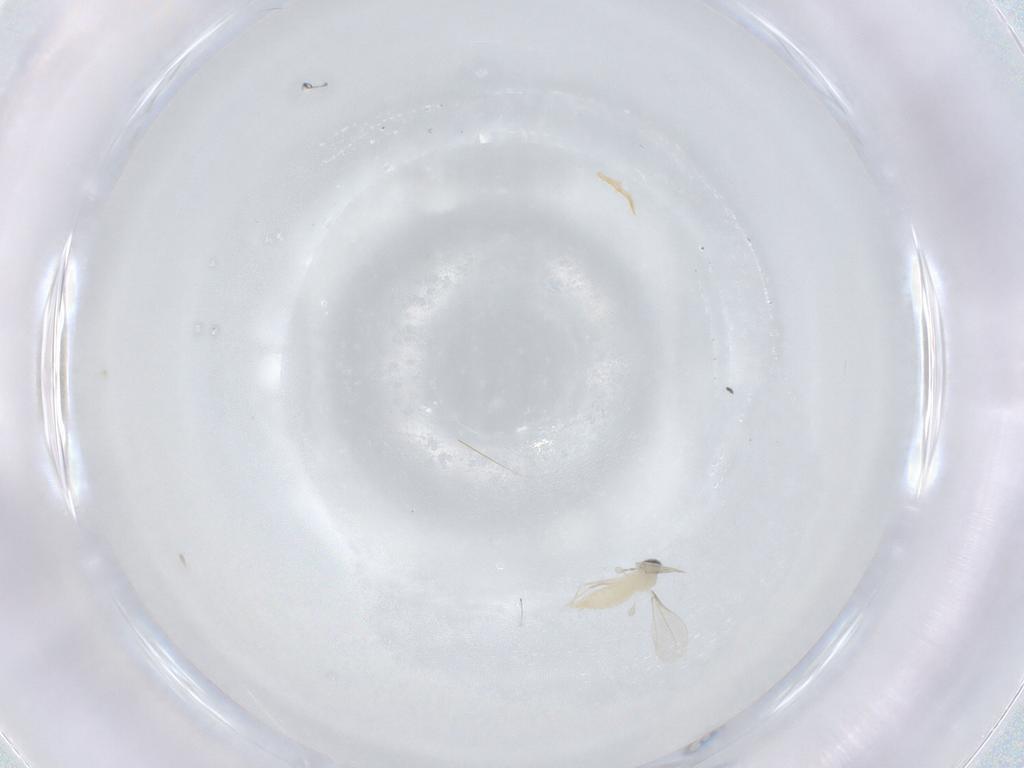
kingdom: Animalia
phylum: Arthropoda
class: Insecta
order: Diptera
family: Cecidomyiidae
